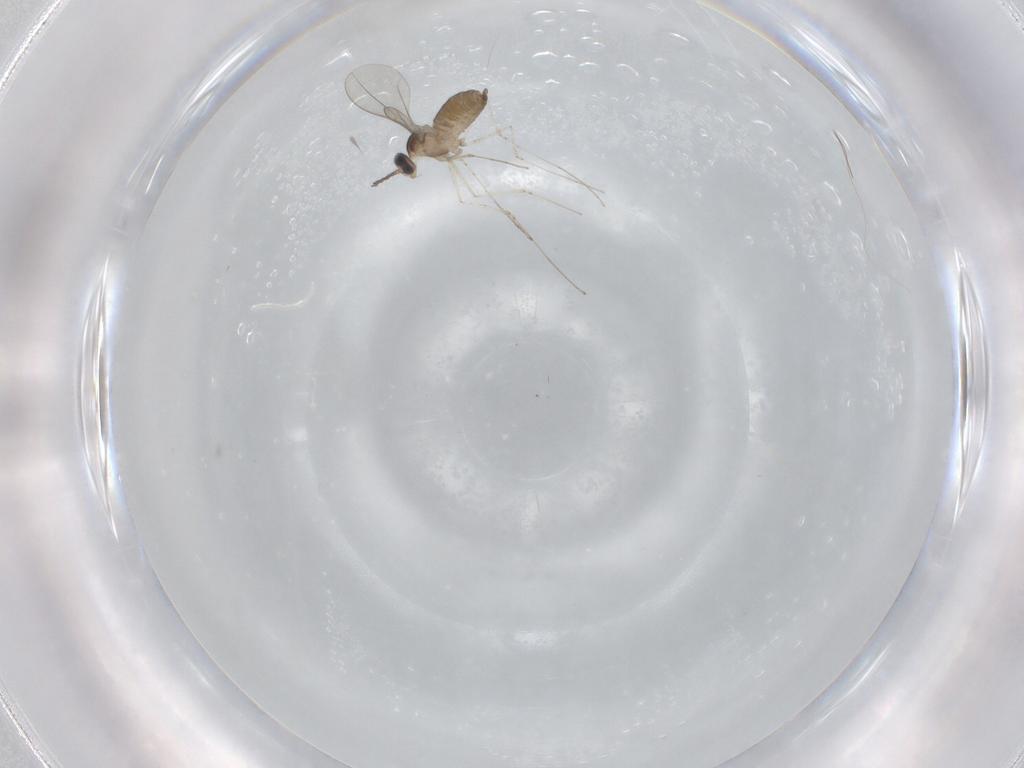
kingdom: Animalia
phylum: Arthropoda
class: Insecta
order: Diptera
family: Cecidomyiidae
